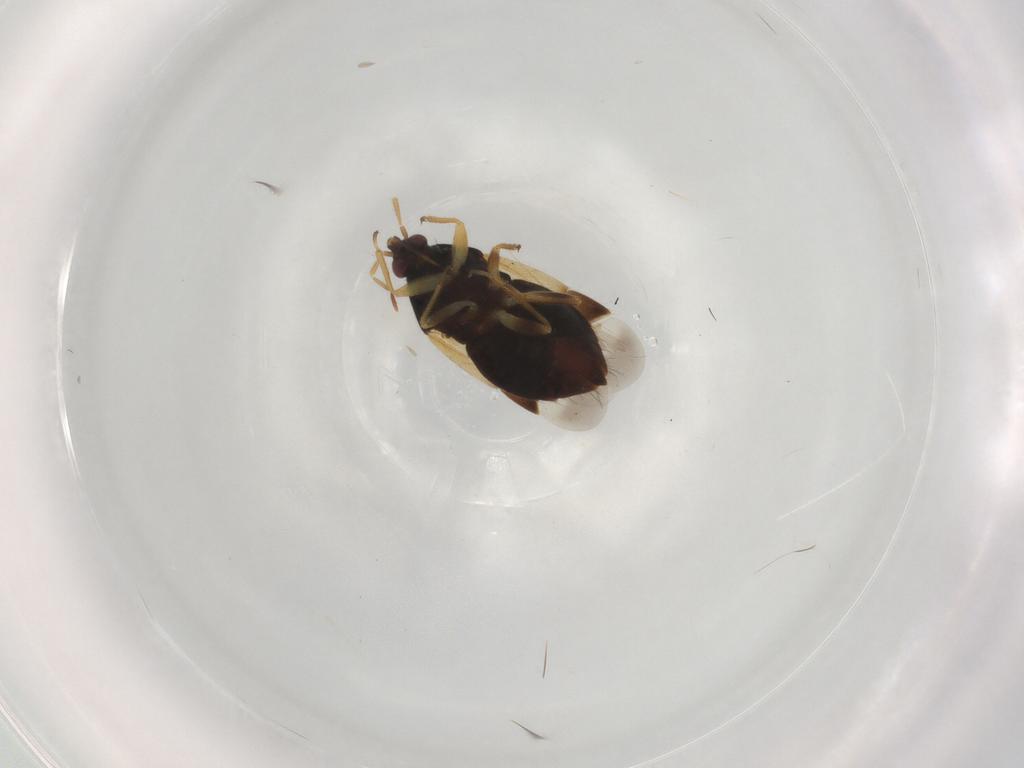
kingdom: Animalia
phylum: Arthropoda
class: Insecta
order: Hemiptera
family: Anthocoridae
